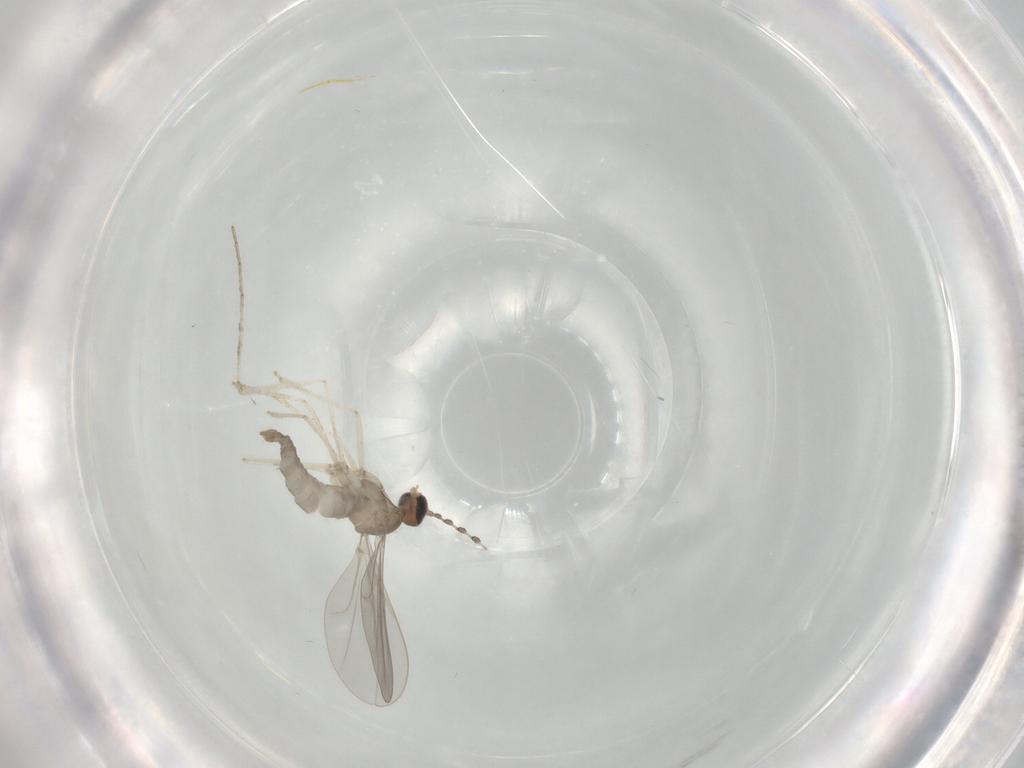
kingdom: Animalia
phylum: Arthropoda
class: Insecta
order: Diptera
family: Cecidomyiidae
